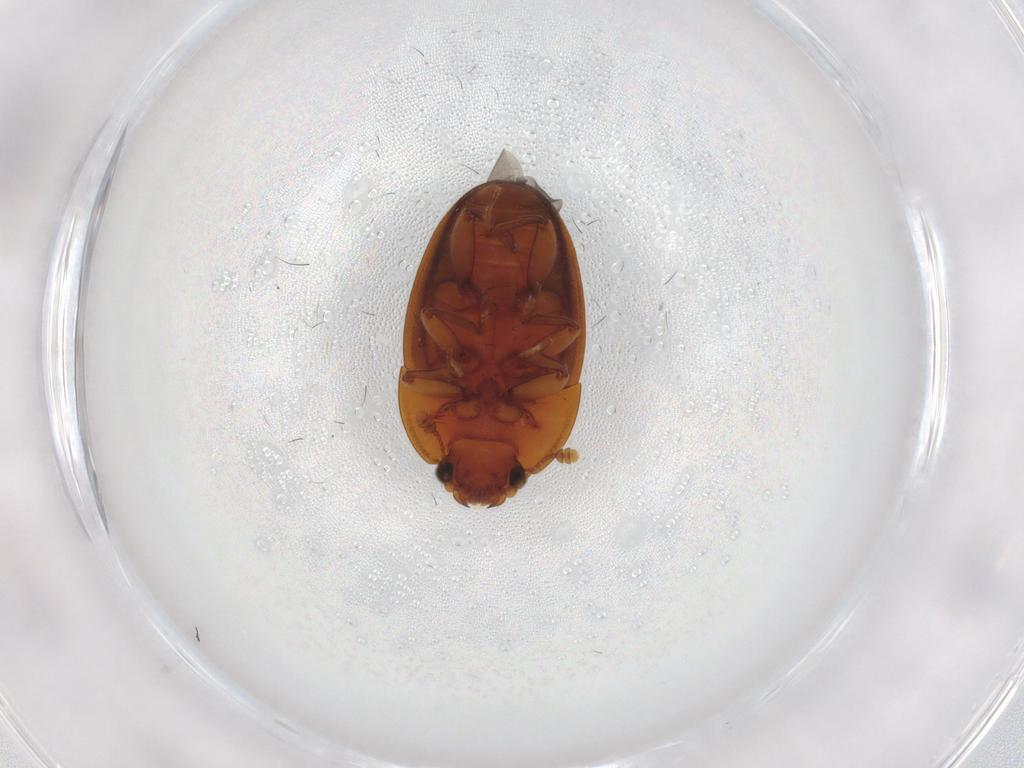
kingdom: Animalia
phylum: Arthropoda
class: Insecta
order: Coleoptera
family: Nitidulidae
